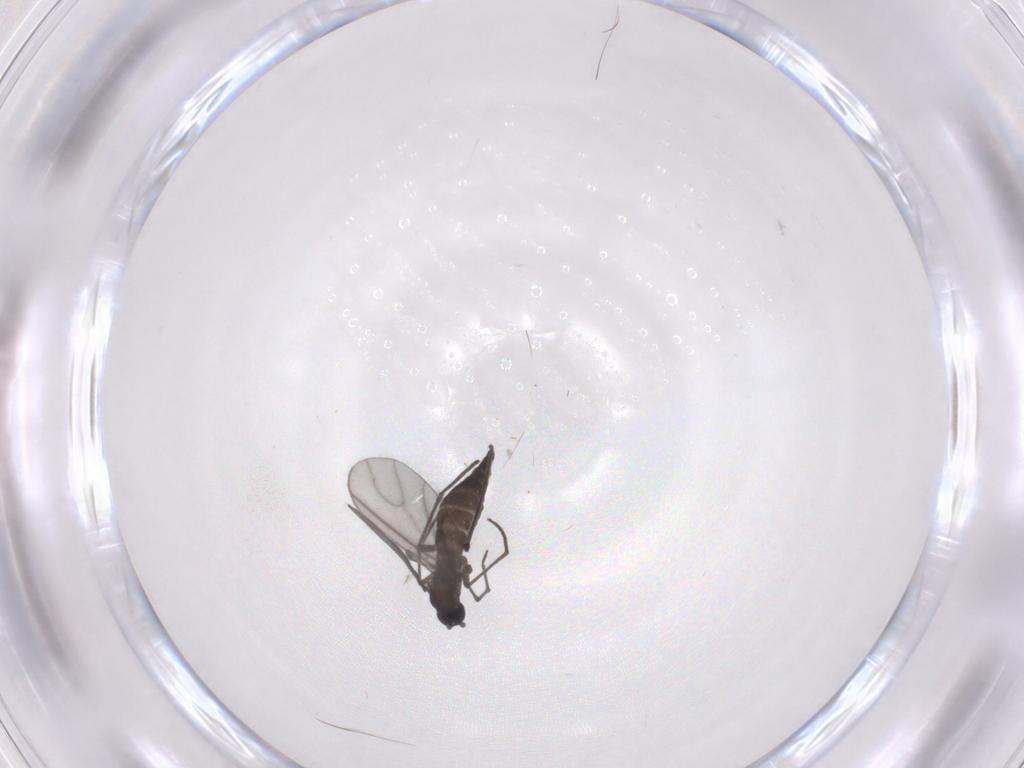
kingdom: Animalia
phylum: Arthropoda
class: Insecta
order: Diptera
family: Sciaridae
